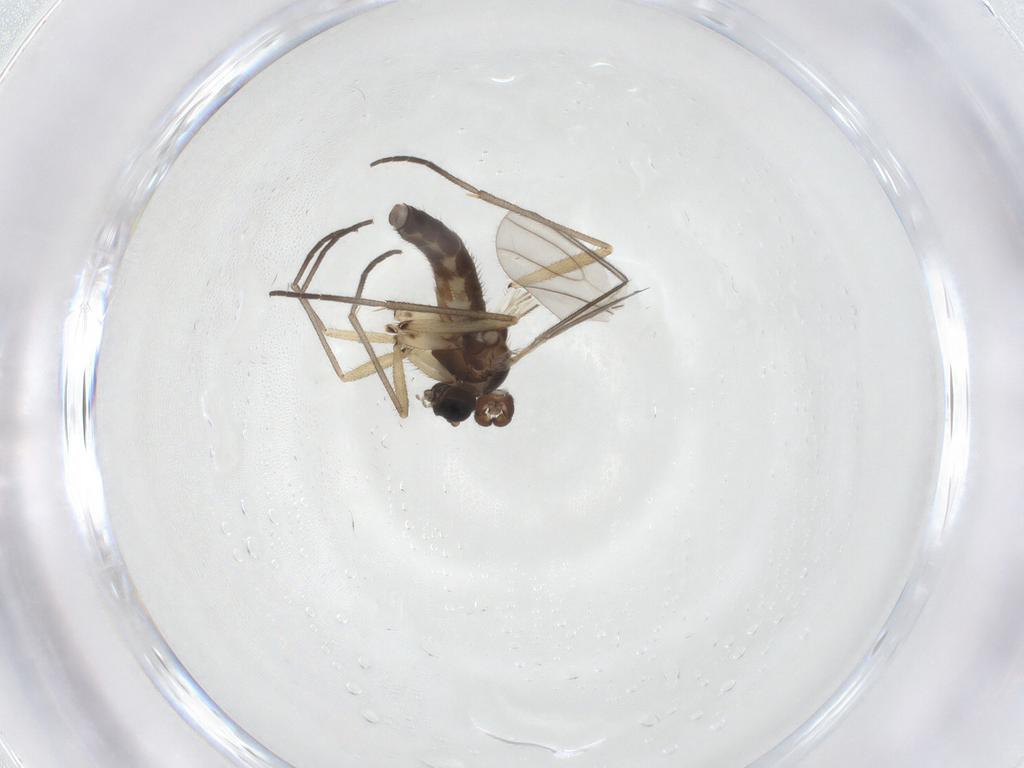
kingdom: Animalia
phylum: Arthropoda
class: Insecta
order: Diptera
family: Sciaridae
